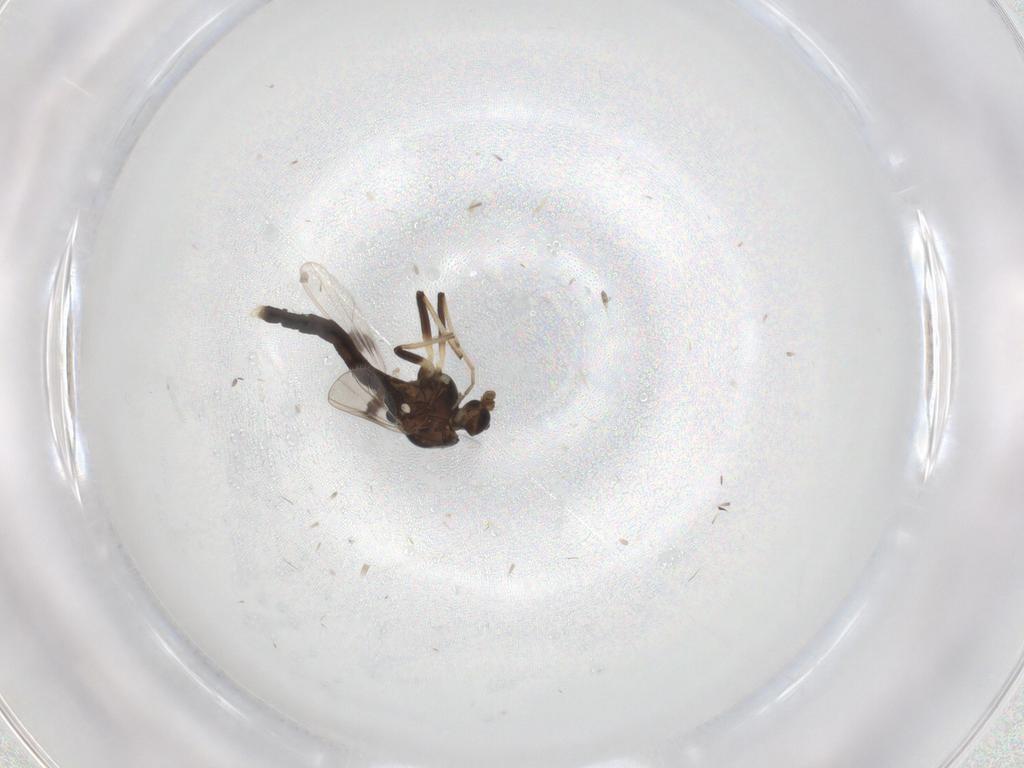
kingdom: Animalia
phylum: Arthropoda
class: Insecta
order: Diptera
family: Chironomidae
